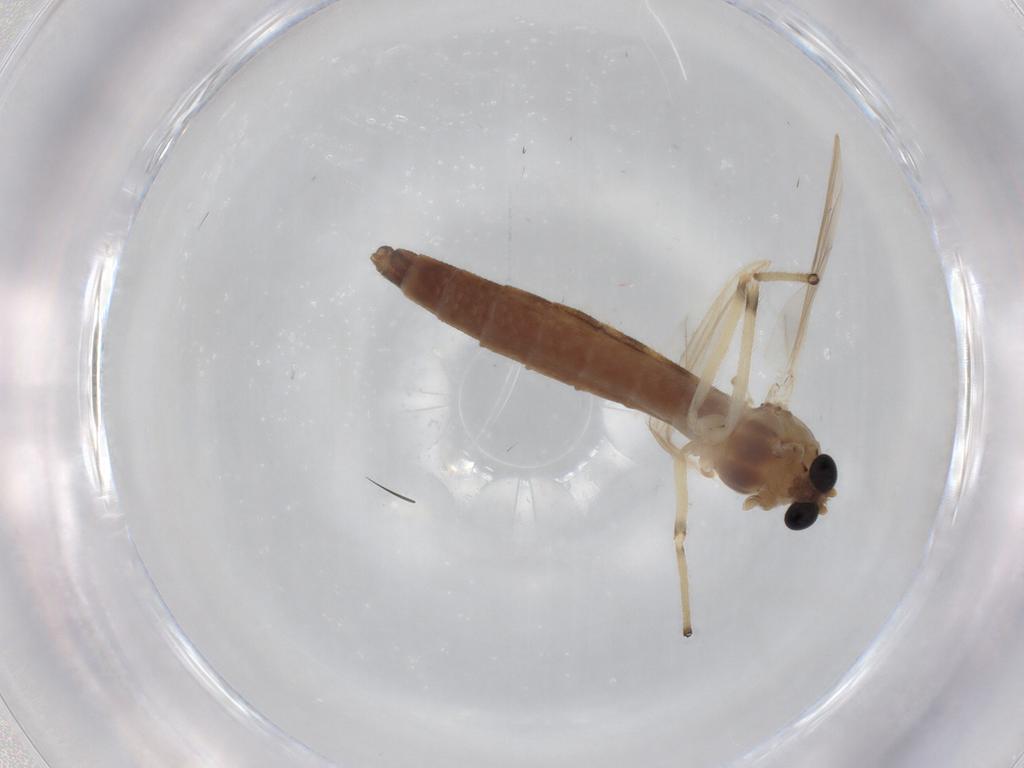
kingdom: Animalia
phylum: Arthropoda
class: Insecta
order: Diptera
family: Chironomidae
